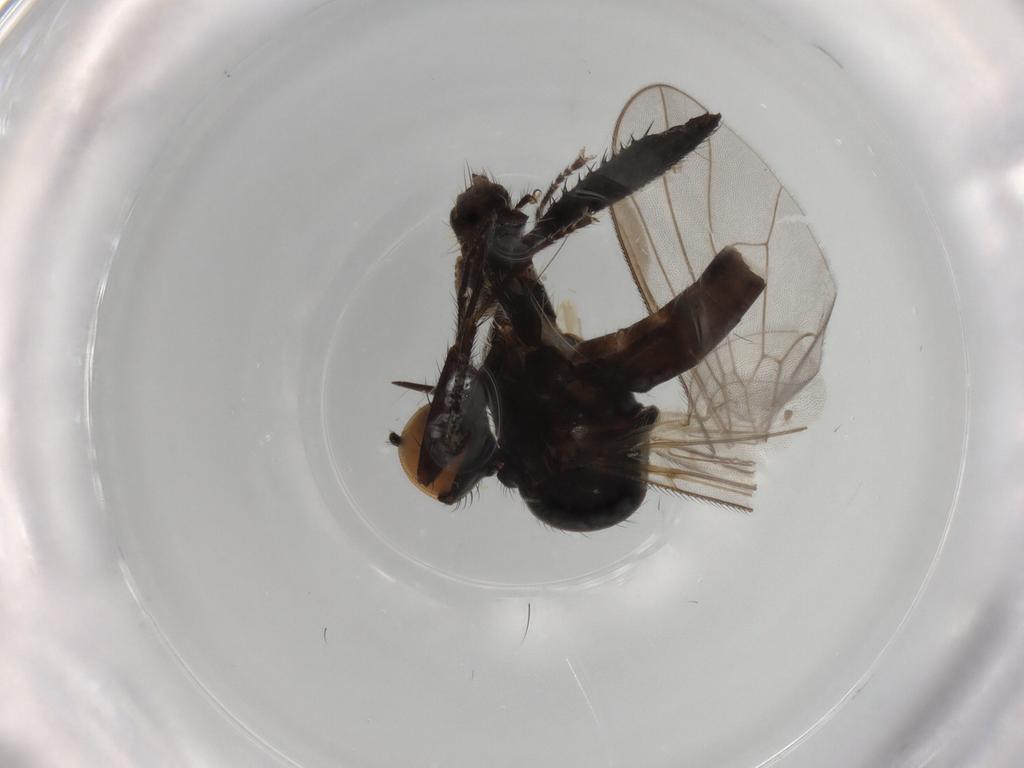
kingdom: Animalia
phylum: Arthropoda
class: Insecta
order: Diptera
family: Hybotidae
